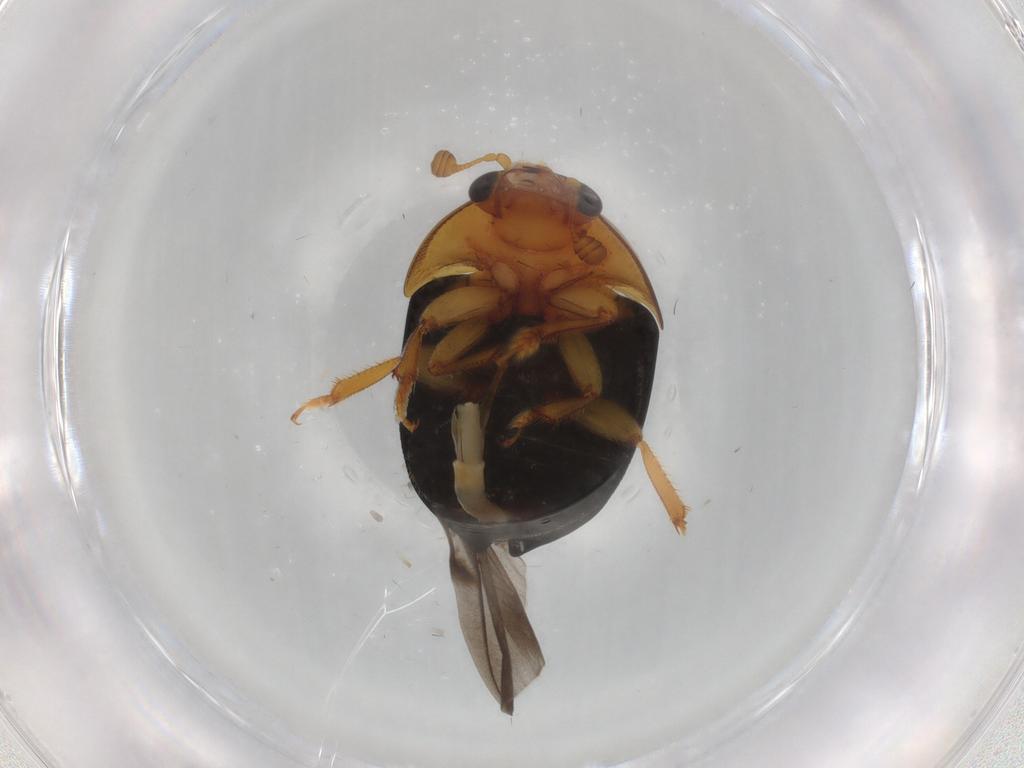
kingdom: Animalia
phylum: Arthropoda
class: Insecta
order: Coleoptera
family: Nitidulidae
